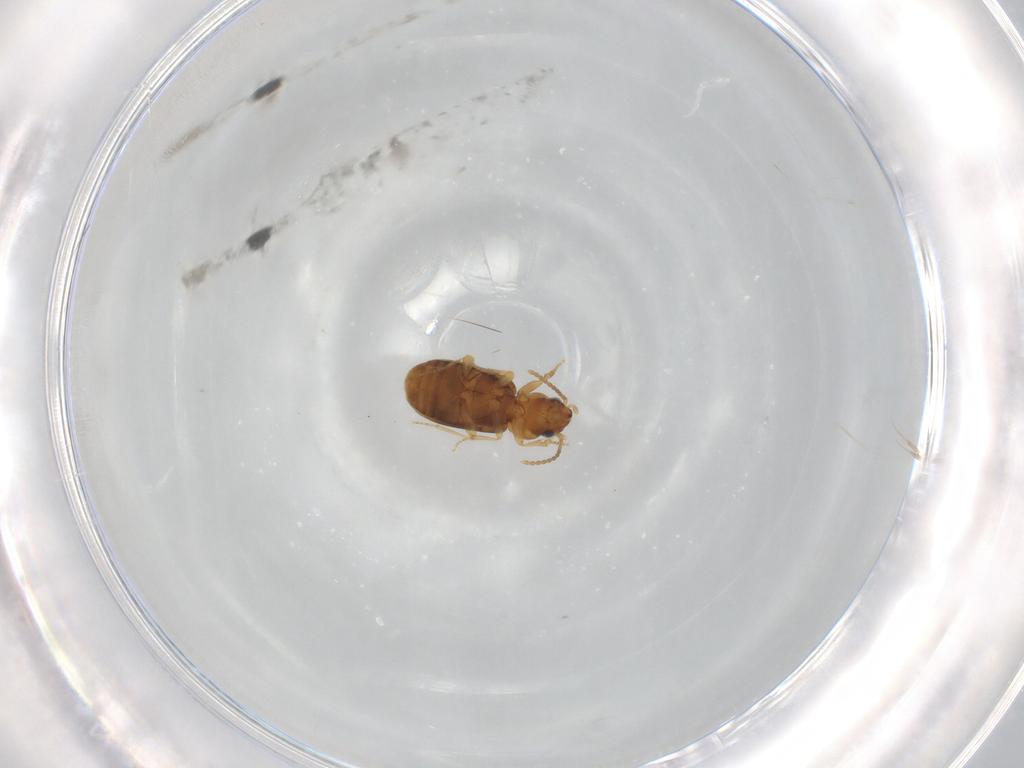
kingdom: Animalia
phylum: Arthropoda
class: Insecta
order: Coleoptera
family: Carabidae
